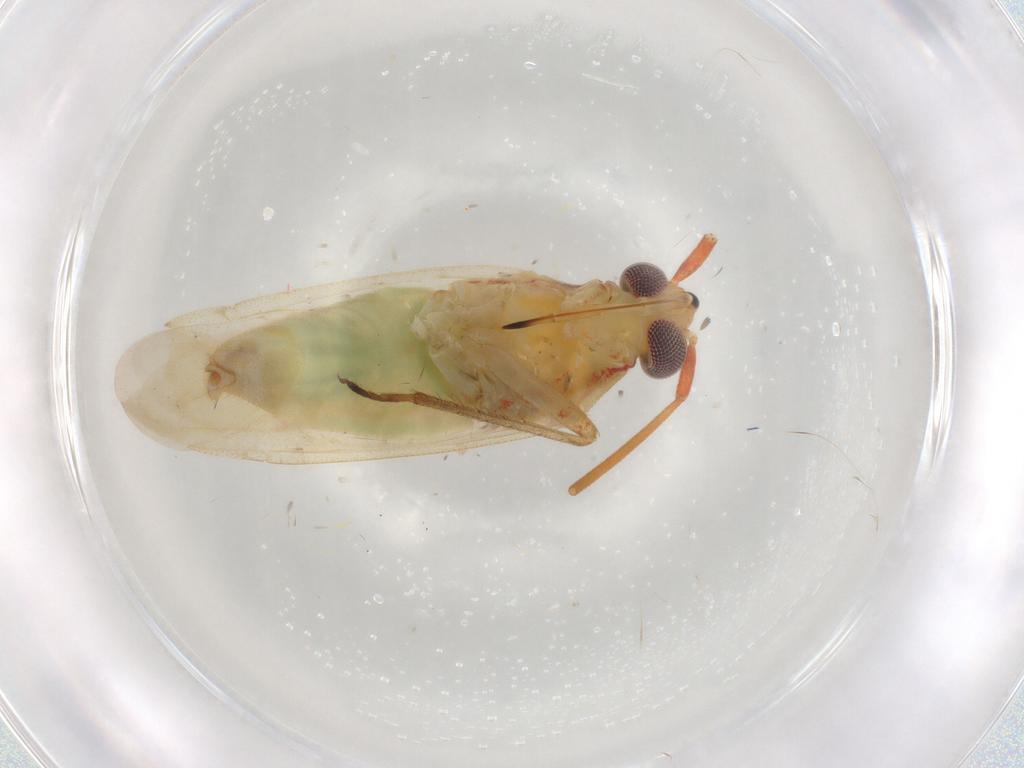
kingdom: Animalia
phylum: Arthropoda
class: Insecta
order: Hemiptera
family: Miridae
